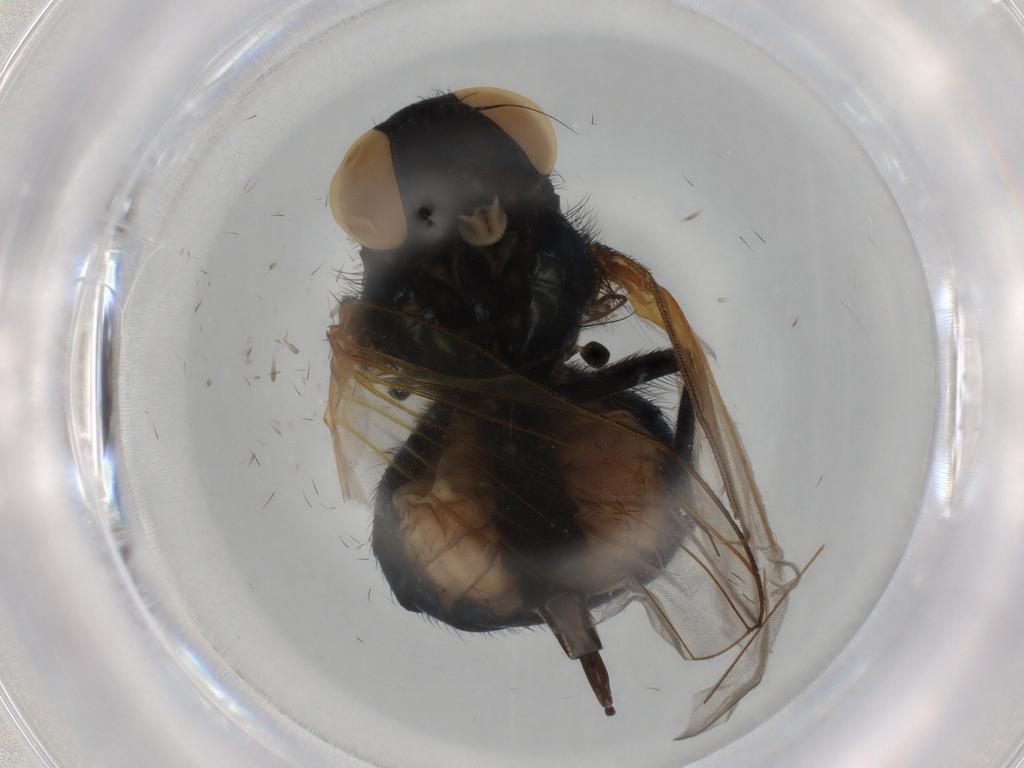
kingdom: Animalia
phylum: Arthropoda
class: Insecta
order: Diptera
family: Lonchaeidae
